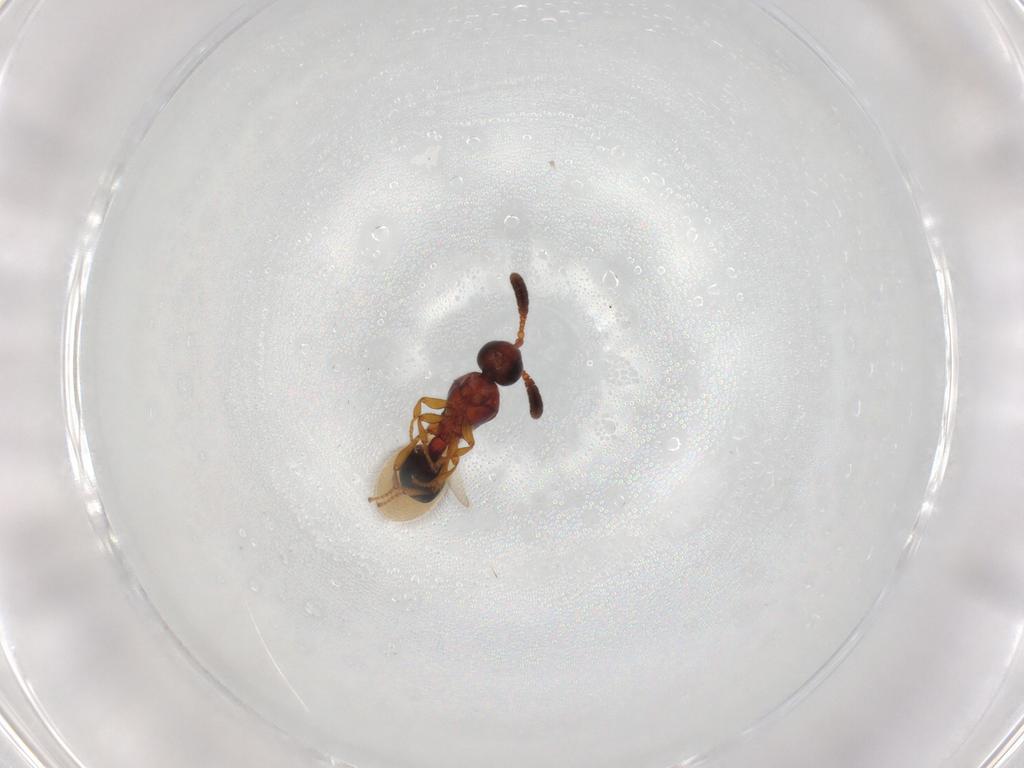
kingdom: Animalia
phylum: Arthropoda
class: Insecta
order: Hymenoptera
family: Diapriidae
